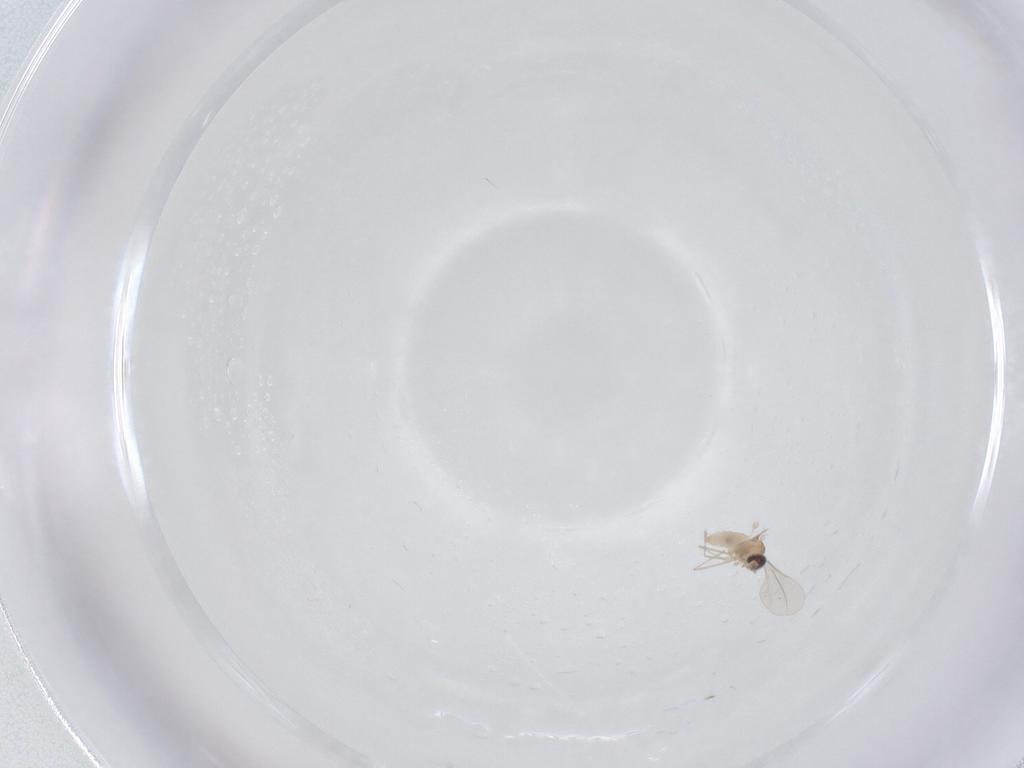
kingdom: Animalia
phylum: Arthropoda
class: Insecta
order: Diptera
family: Cecidomyiidae
